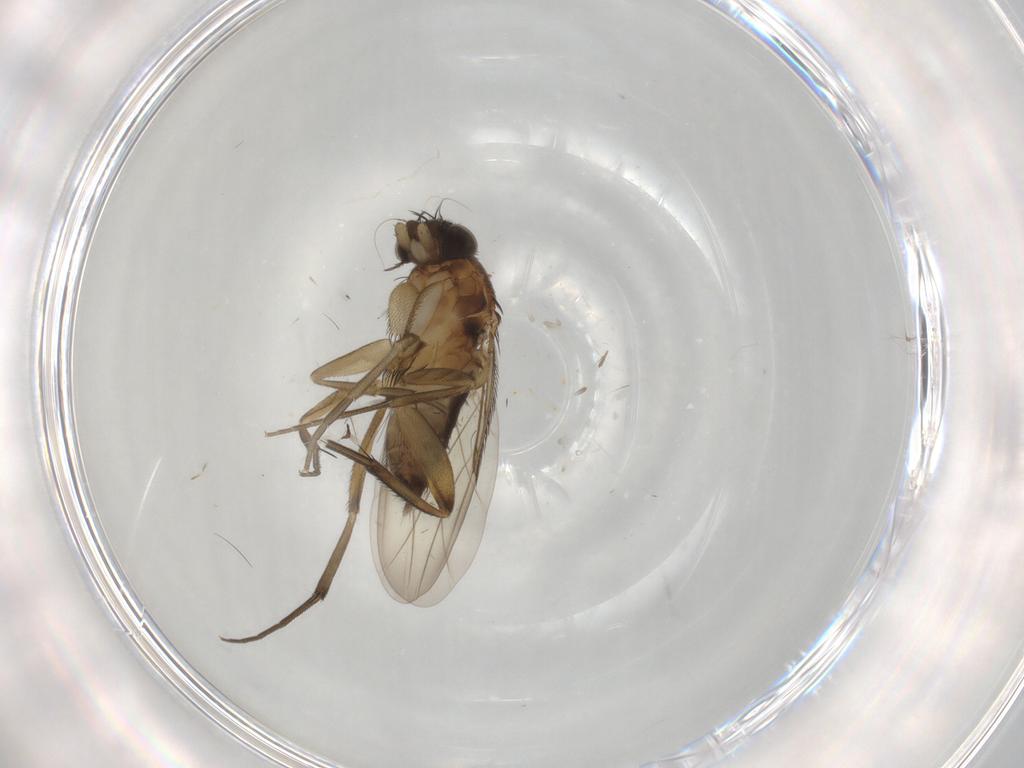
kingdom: Animalia
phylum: Arthropoda
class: Insecta
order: Diptera
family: Phoridae
